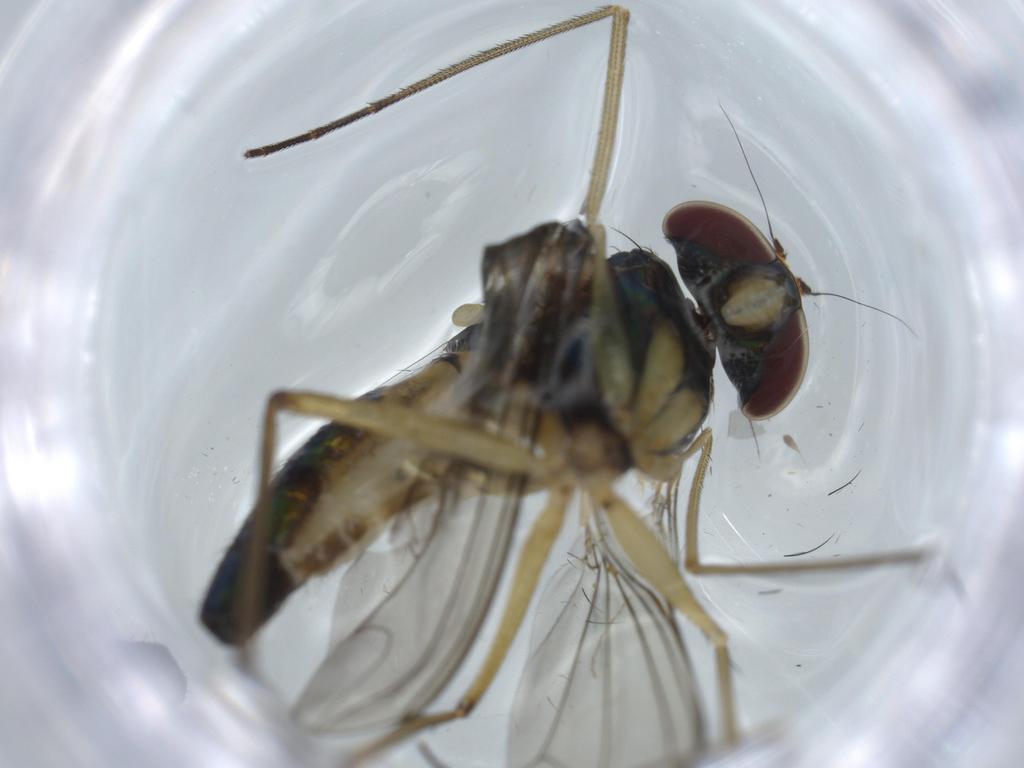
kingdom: Animalia
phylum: Arthropoda
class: Insecta
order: Diptera
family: Dolichopodidae
